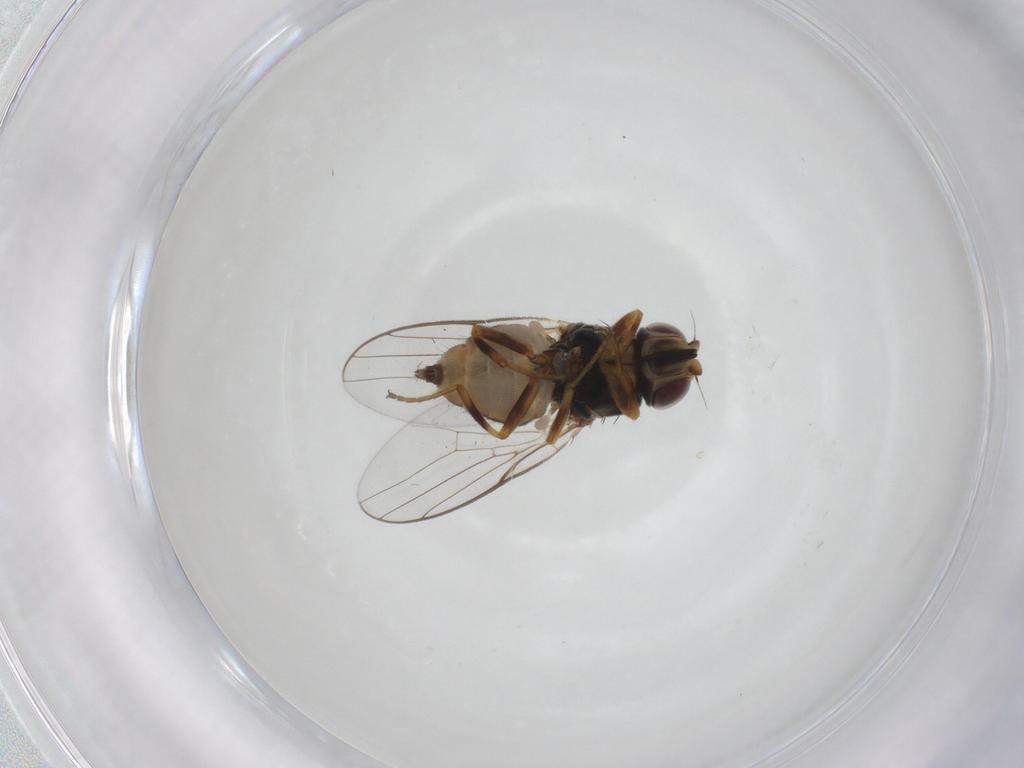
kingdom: Animalia
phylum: Arthropoda
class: Insecta
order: Diptera
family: Chloropidae
